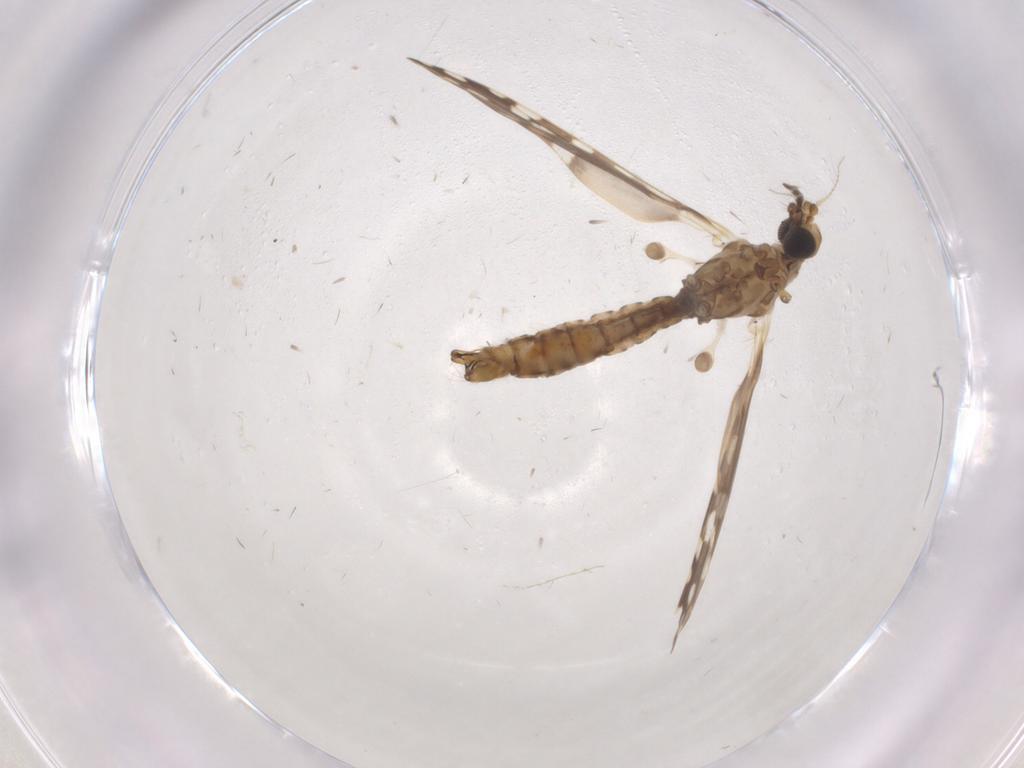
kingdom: Animalia
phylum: Arthropoda
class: Insecta
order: Diptera
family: Limoniidae
